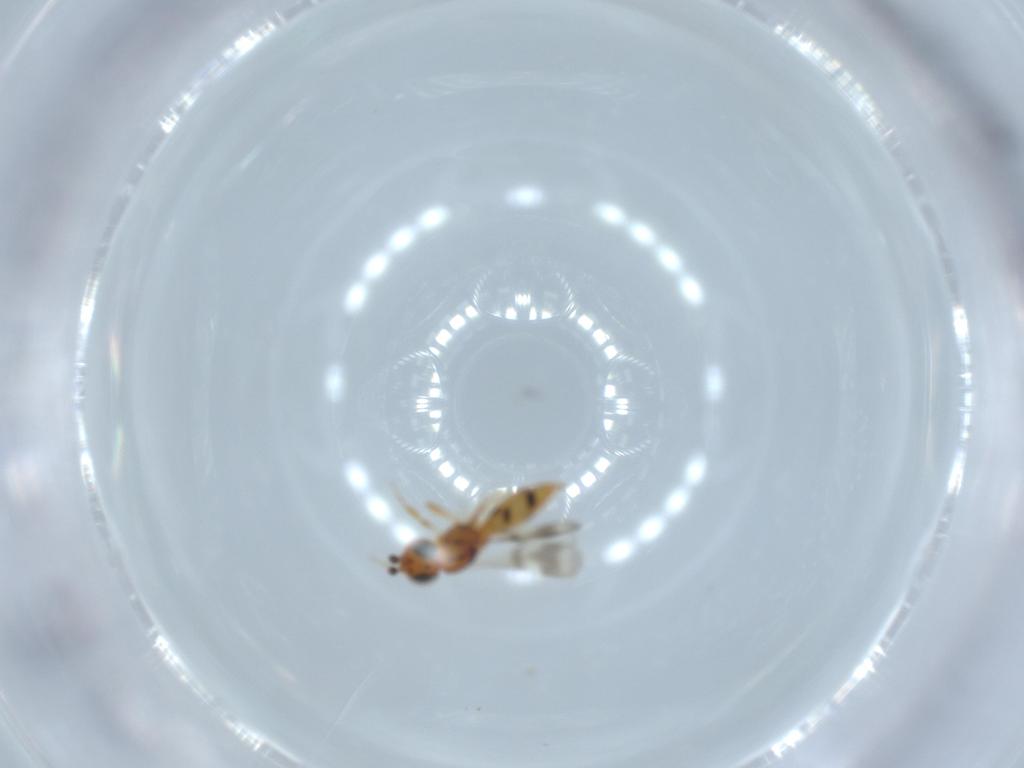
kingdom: Animalia
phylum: Arthropoda
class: Insecta
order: Hymenoptera
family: Scelionidae
